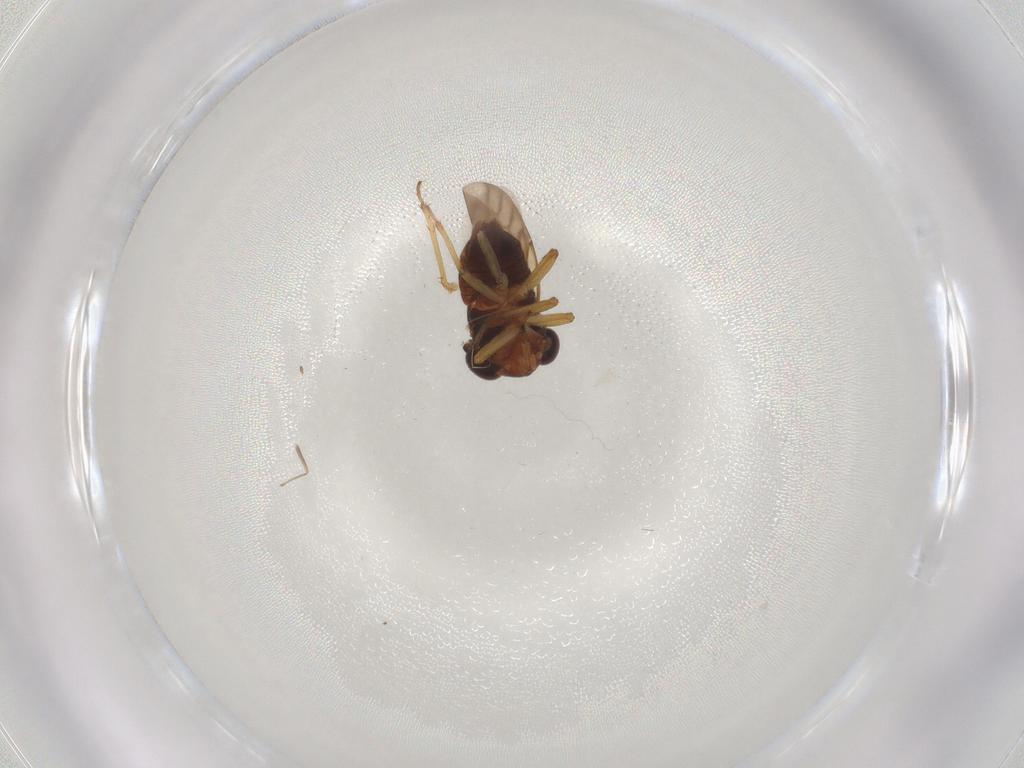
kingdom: Animalia
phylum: Arthropoda
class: Insecta
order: Hemiptera
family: Schizopteridae
